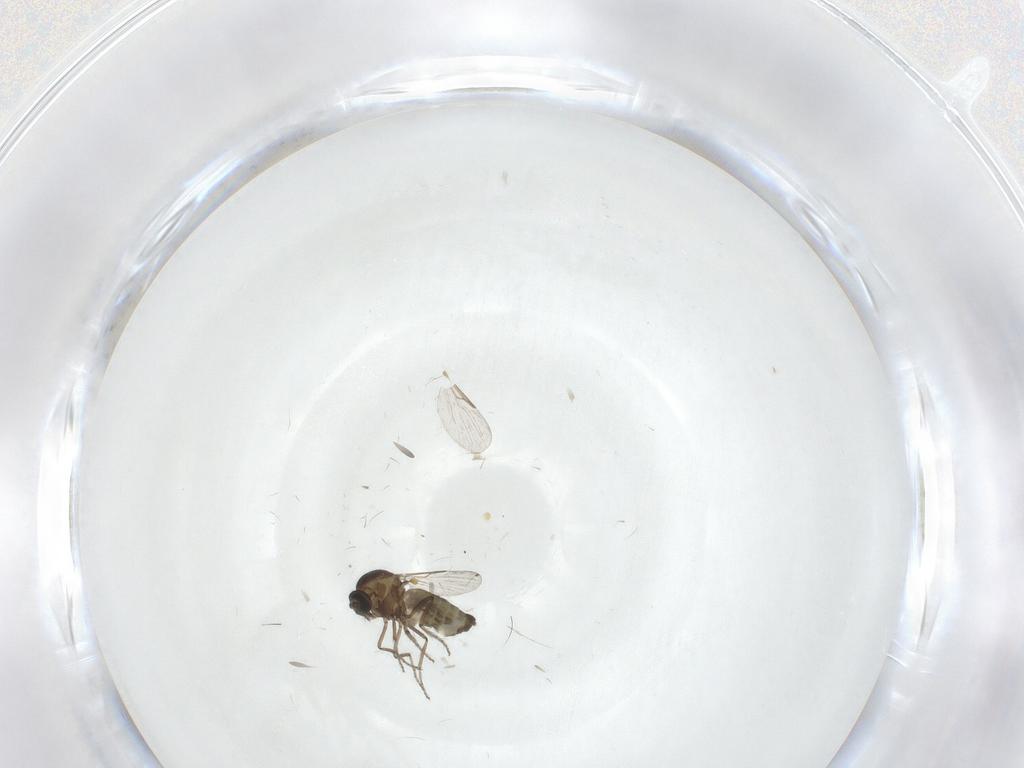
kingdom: Animalia
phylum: Arthropoda
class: Insecta
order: Diptera
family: Ceratopogonidae
